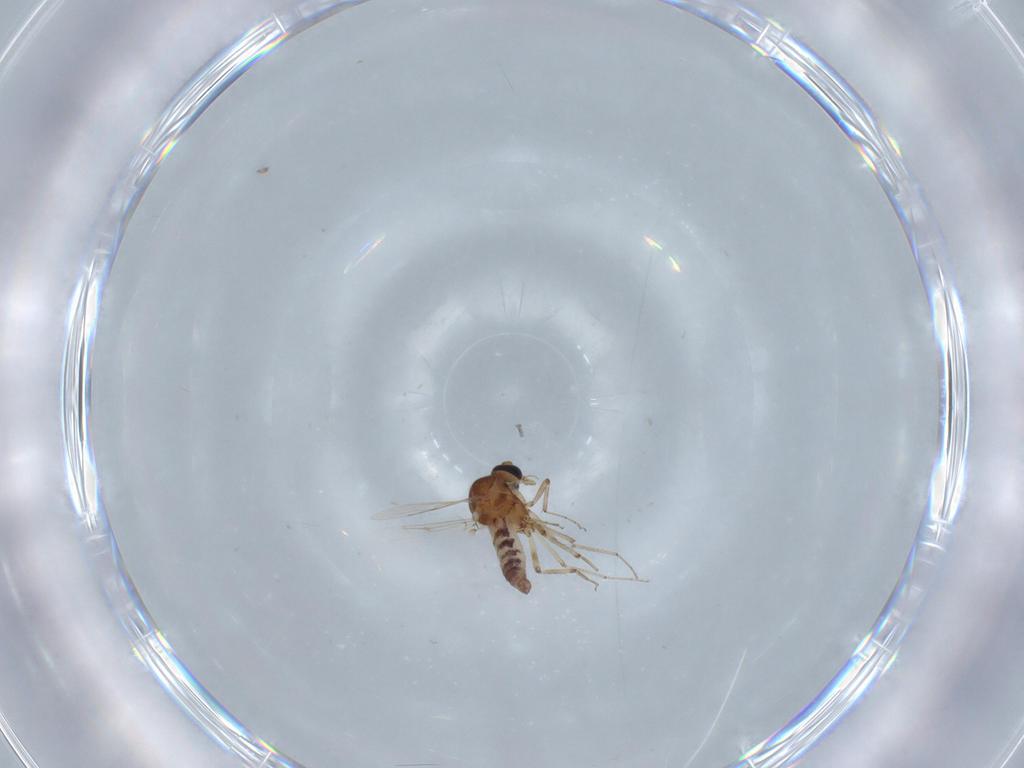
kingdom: Animalia
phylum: Arthropoda
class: Insecta
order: Diptera
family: Ceratopogonidae
